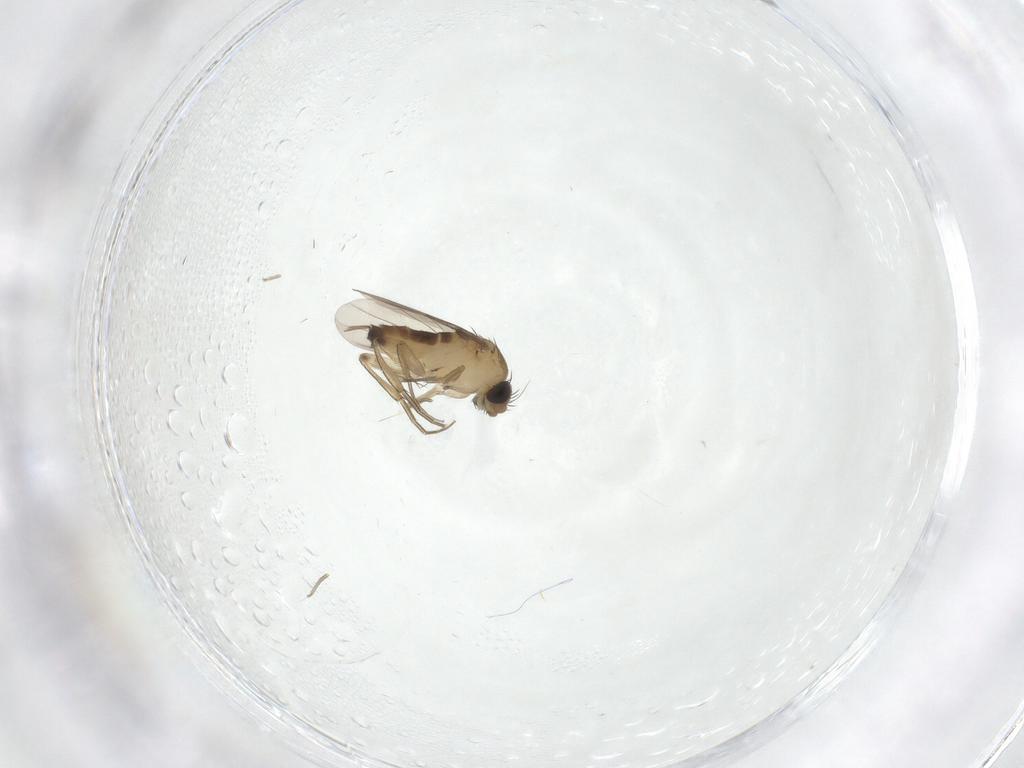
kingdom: Animalia
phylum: Arthropoda
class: Insecta
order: Diptera
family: Phoridae
